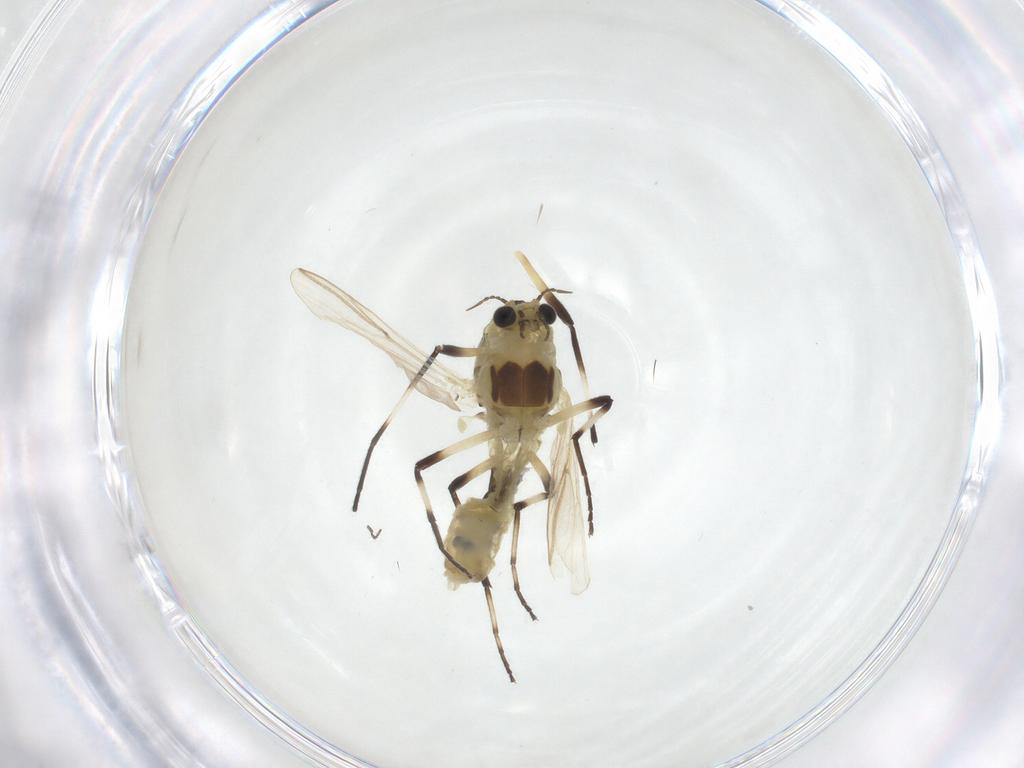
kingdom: Animalia
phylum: Arthropoda
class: Insecta
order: Diptera
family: Chironomidae
